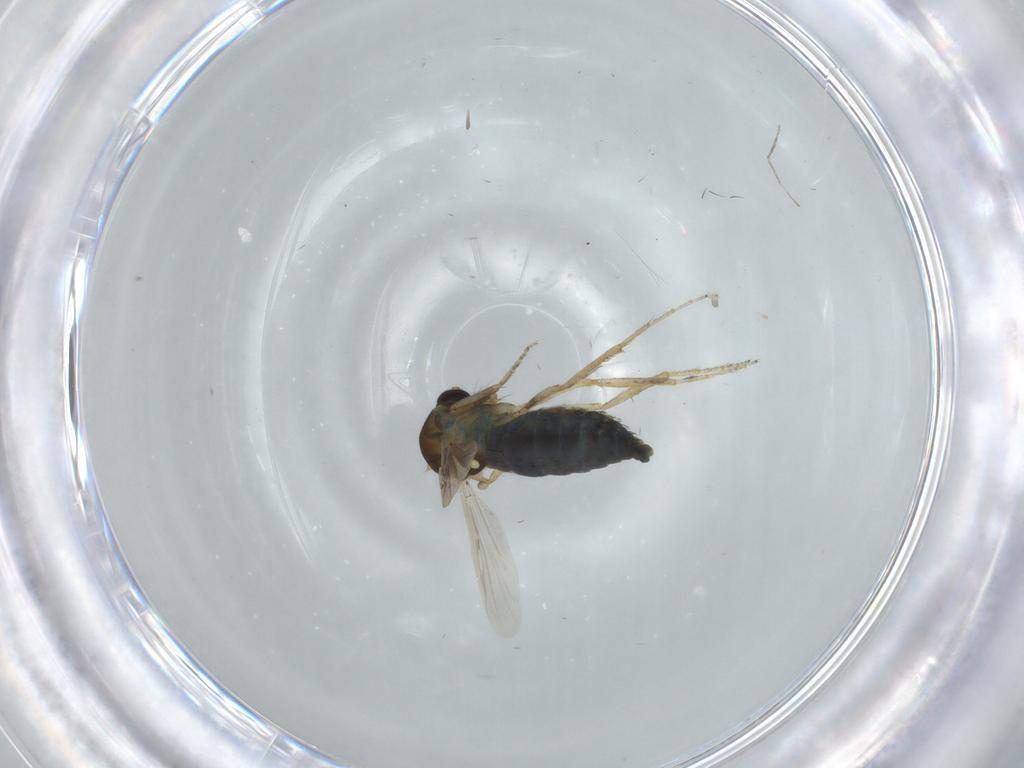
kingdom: Animalia
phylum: Arthropoda
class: Insecta
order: Diptera
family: Ceratopogonidae
